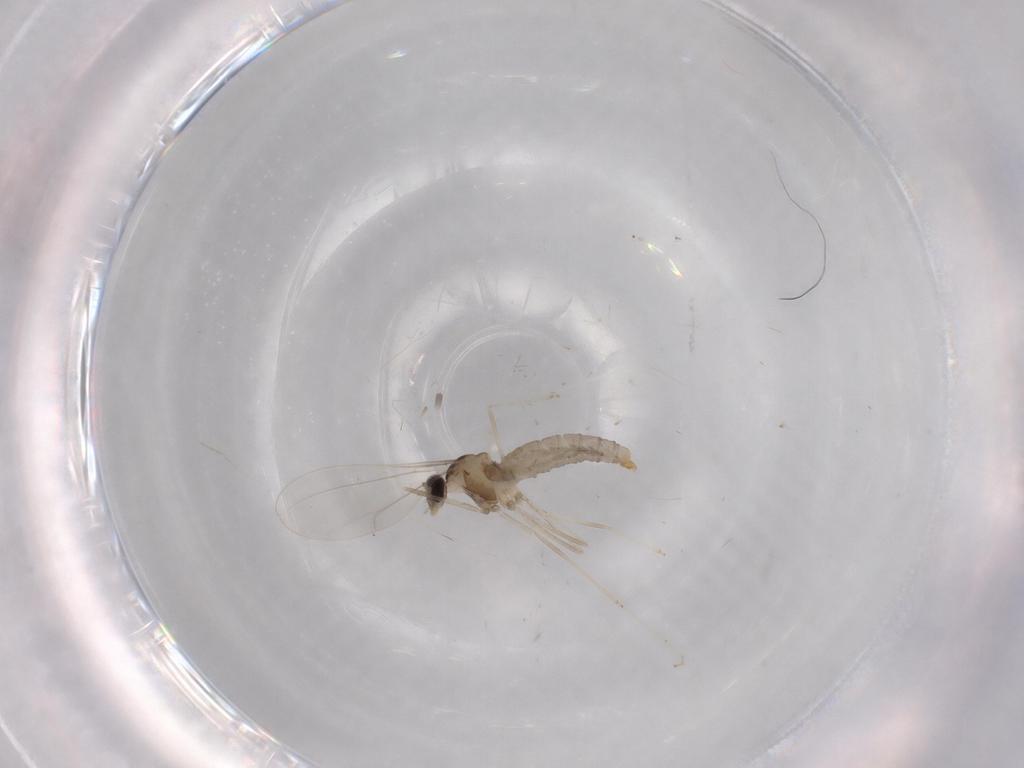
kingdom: Animalia
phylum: Arthropoda
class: Insecta
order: Diptera
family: Cecidomyiidae
